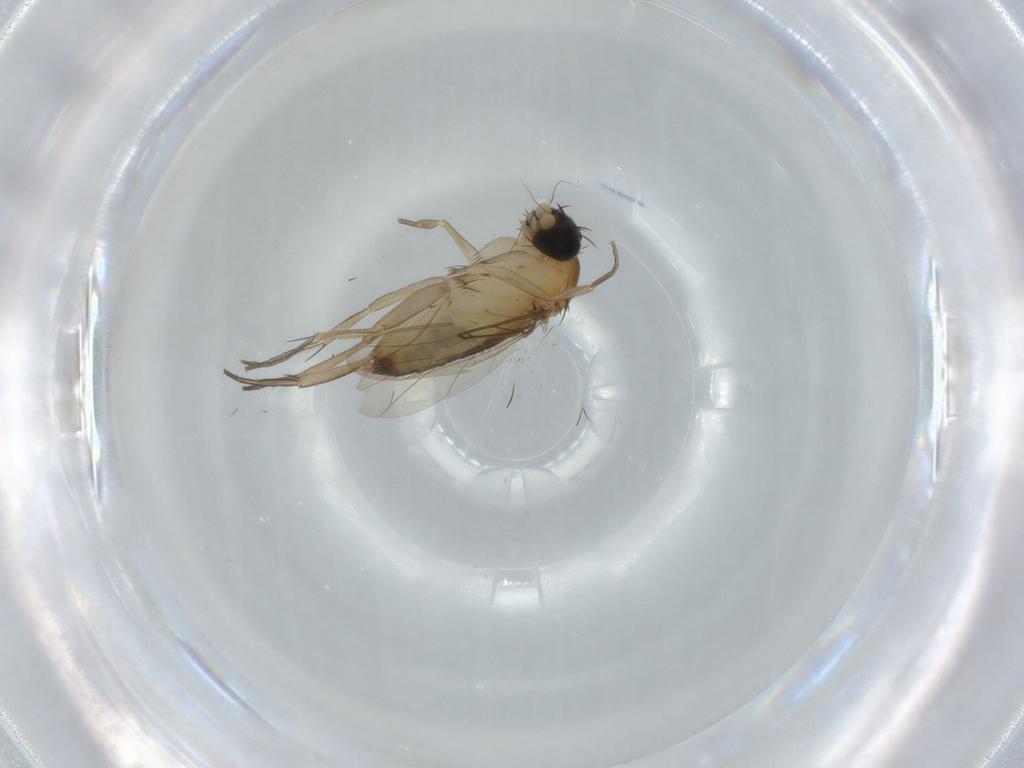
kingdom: Animalia
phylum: Arthropoda
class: Insecta
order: Diptera
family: Phoridae
